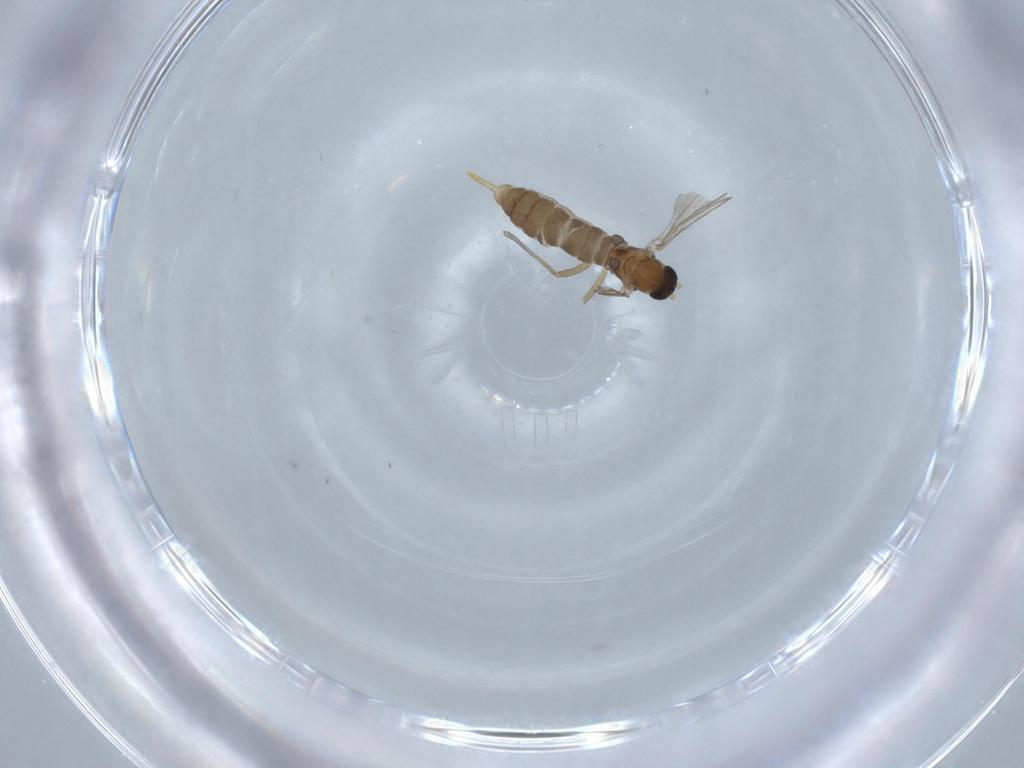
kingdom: Animalia
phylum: Arthropoda
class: Insecta
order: Diptera
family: Sciaridae
